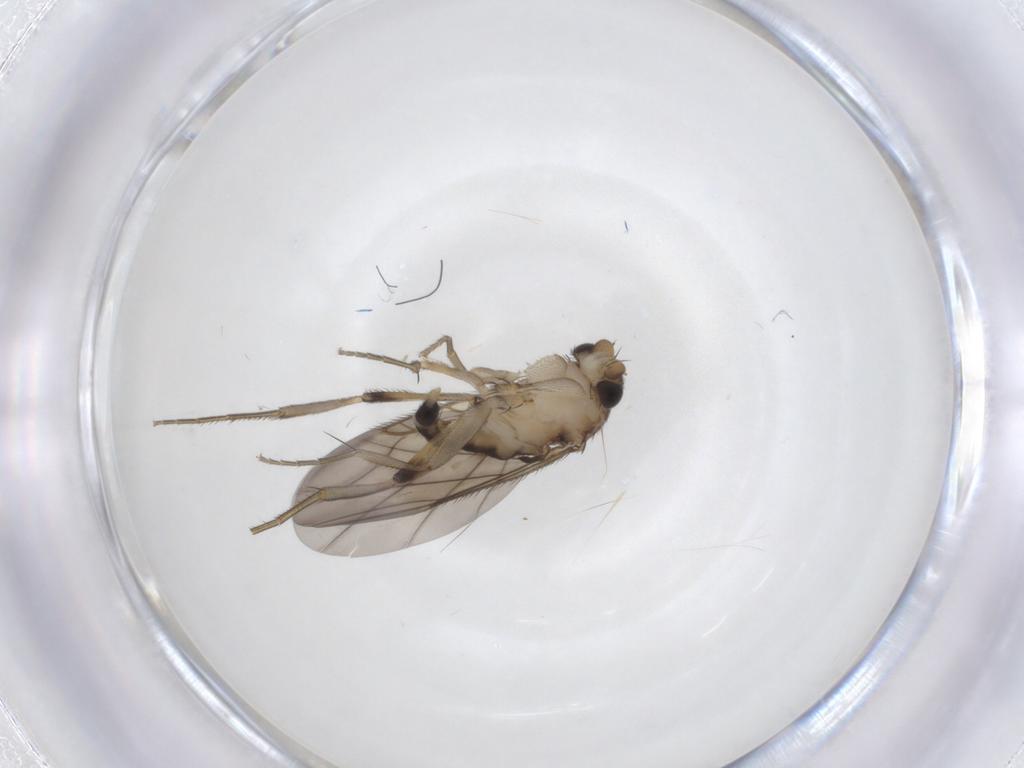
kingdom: Animalia
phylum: Arthropoda
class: Insecta
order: Diptera
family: Phoridae
